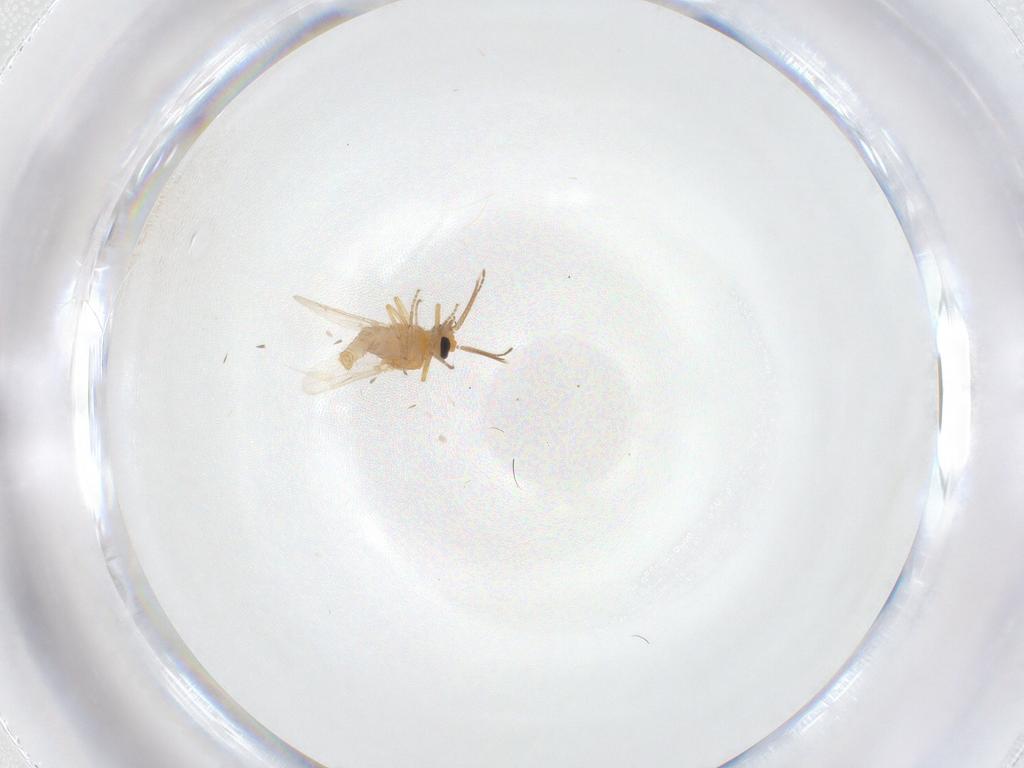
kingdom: Animalia
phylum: Arthropoda
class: Insecta
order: Diptera
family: Ceratopogonidae
